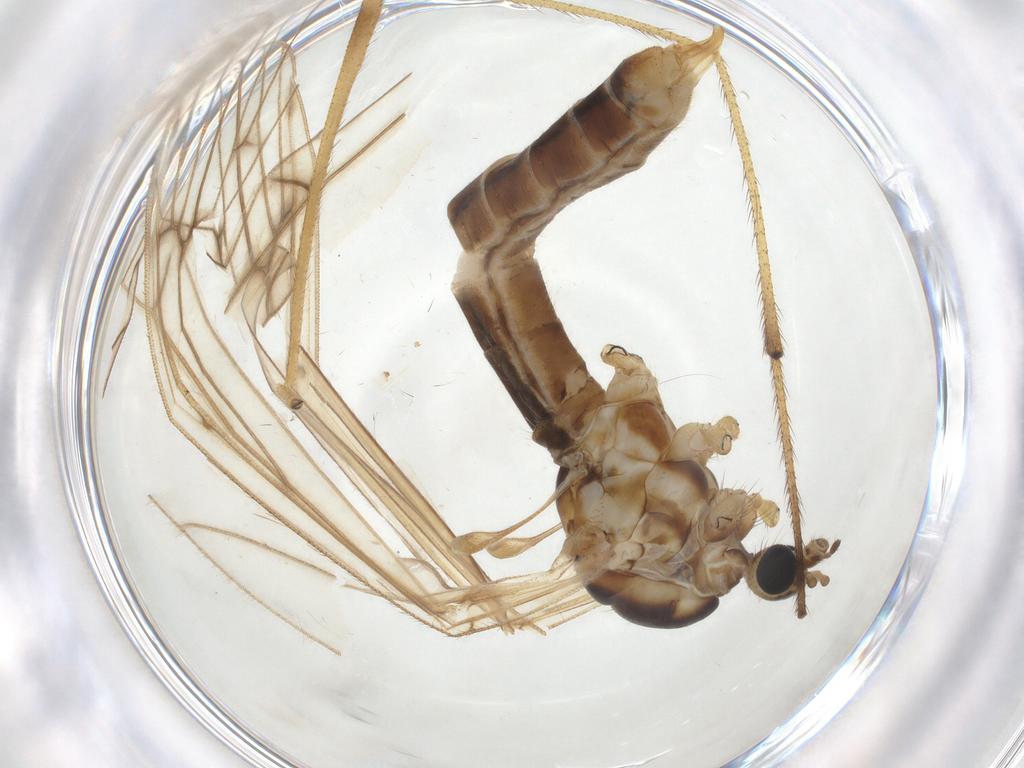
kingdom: Animalia
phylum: Arthropoda
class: Insecta
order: Diptera
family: Limoniidae
